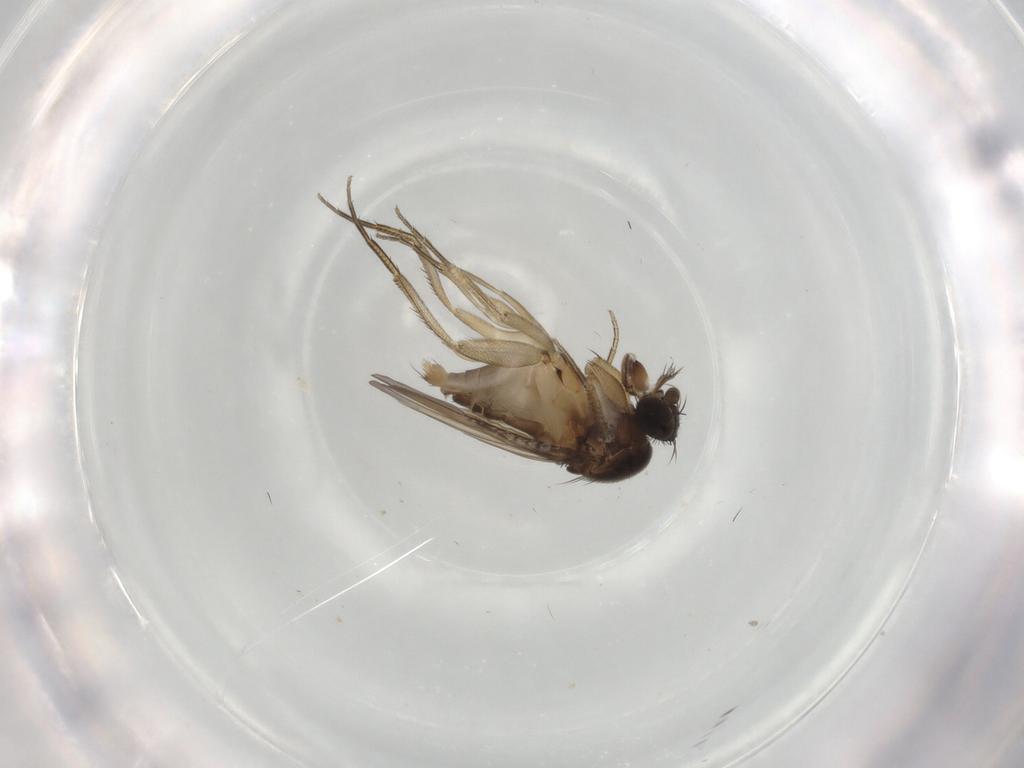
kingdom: Animalia
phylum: Arthropoda
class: Insecta
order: Diptera
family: Phoridae
